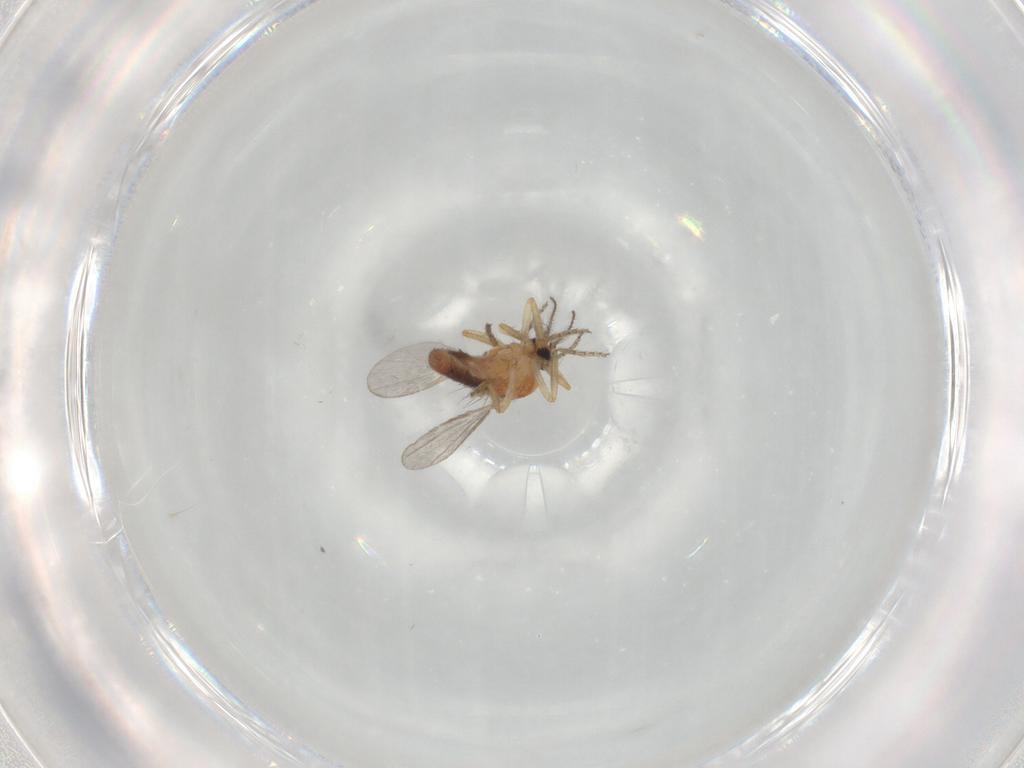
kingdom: Animalia
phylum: Arthropoda
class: Insecta
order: Diptera
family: Ceratopogonidae
